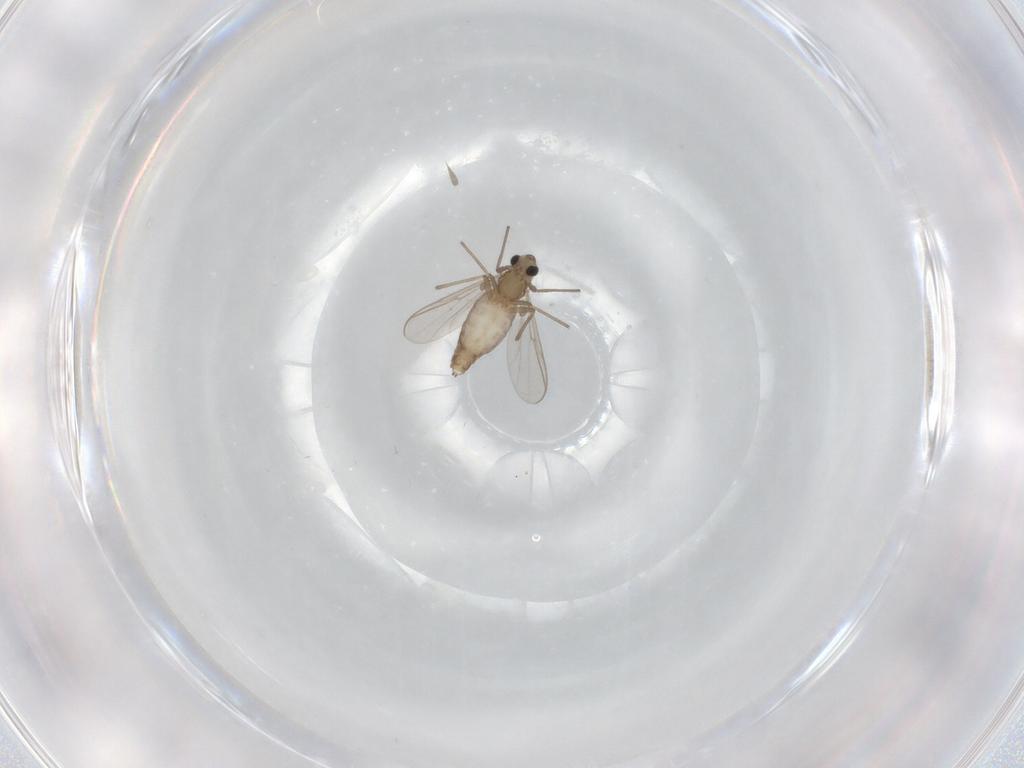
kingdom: Animalia
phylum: Arthropoda
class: Insecta
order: Diptera
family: Chironomidae
